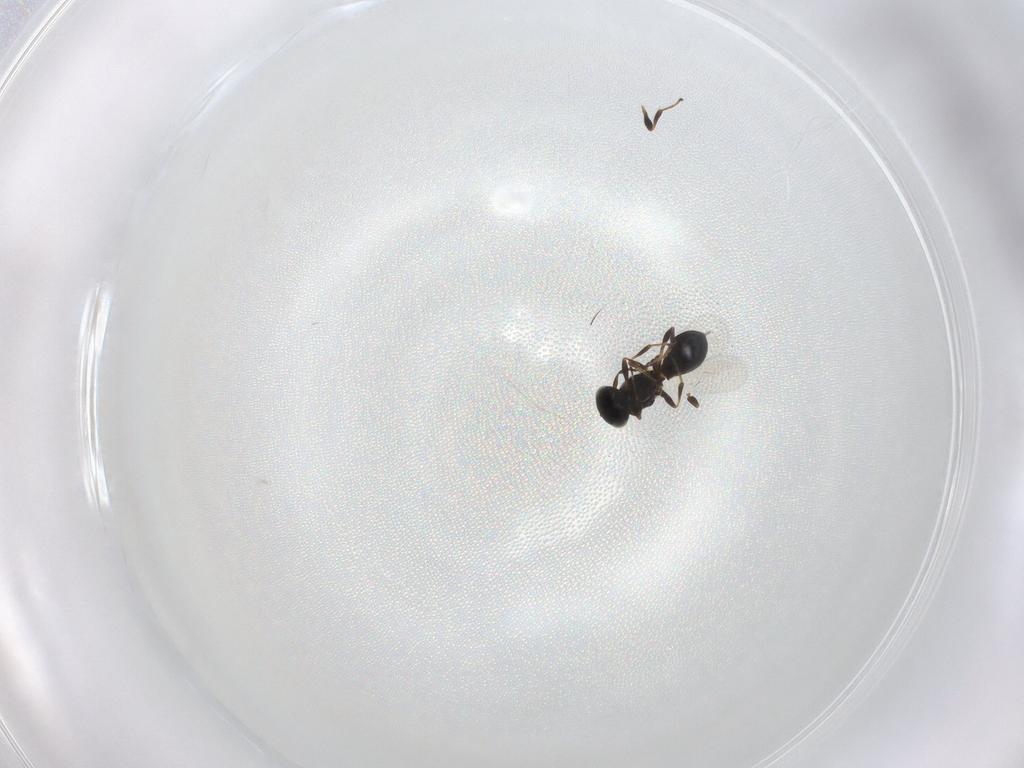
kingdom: Animalia
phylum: Arthropoda
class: Insecta
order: Hymenoptera
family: Platygastridae
